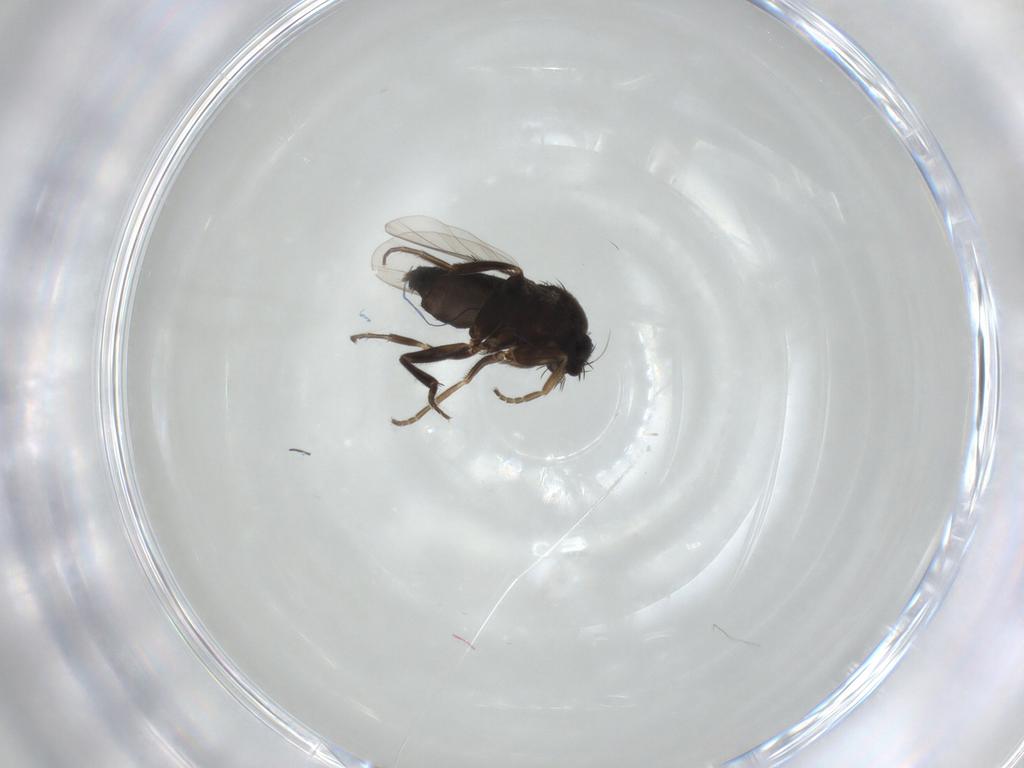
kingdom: Animalia
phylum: Arthropoda
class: Insecta
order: Diptera
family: Phoridae
